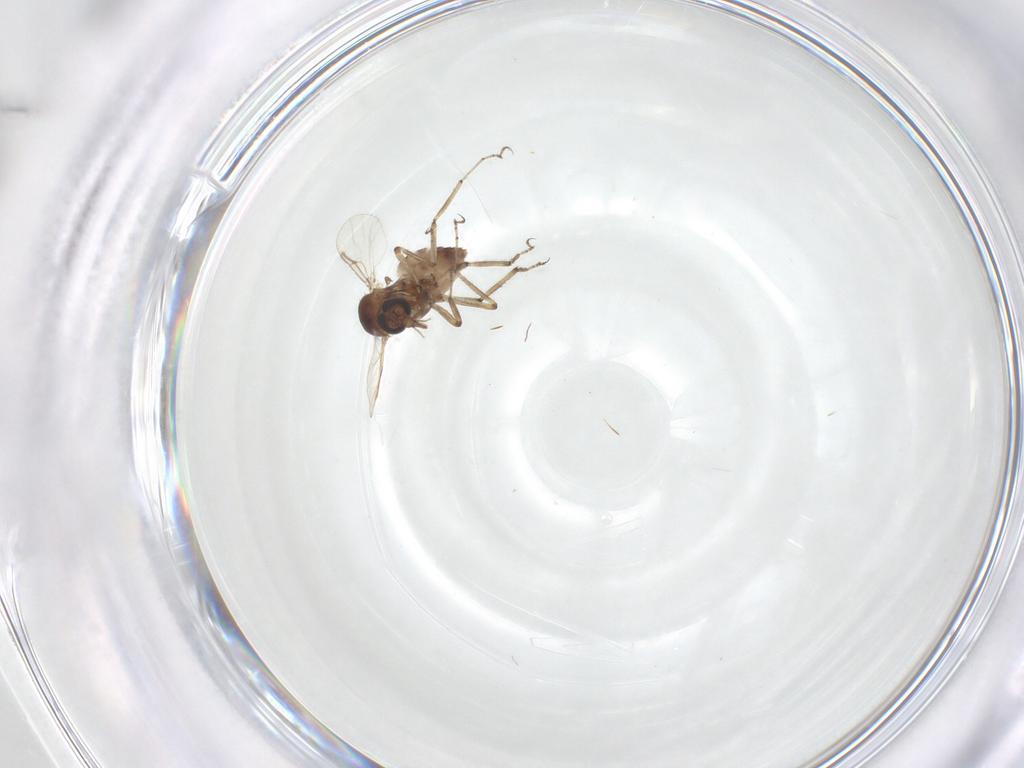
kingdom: Animalia
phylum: Arthropoda
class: Insecta
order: Diptera
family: Ceratopogonidae
